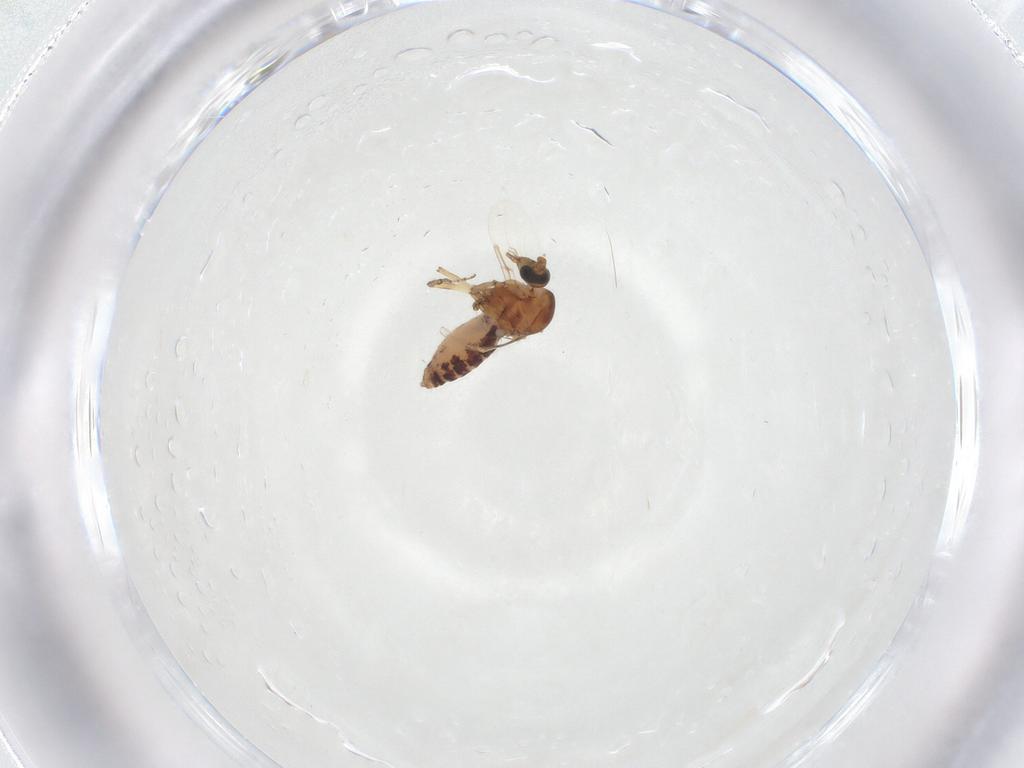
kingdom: Animalia
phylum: Arthropoda
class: Insecta
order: Diptera
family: Ceratopogonidae
